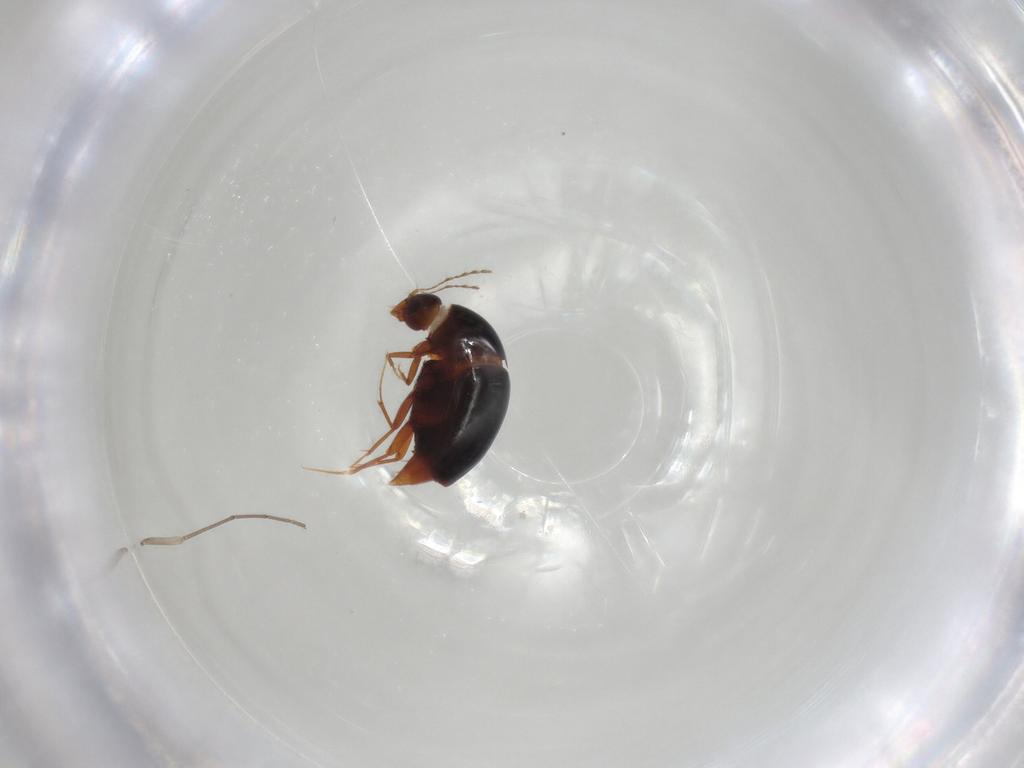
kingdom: Animalia
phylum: Arthropoda
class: Insecta
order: Coleoptera
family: Staphylinidae
